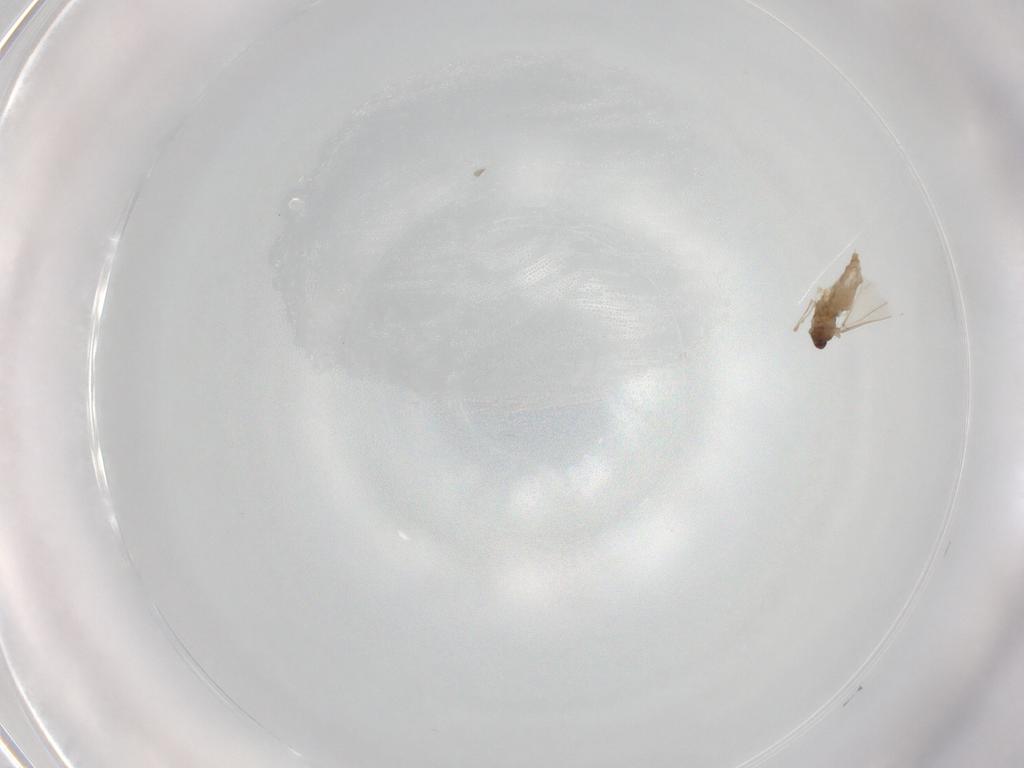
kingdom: Animalia
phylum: Arthropoda
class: Insecta
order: Diptera
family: Cecidomyiidae
